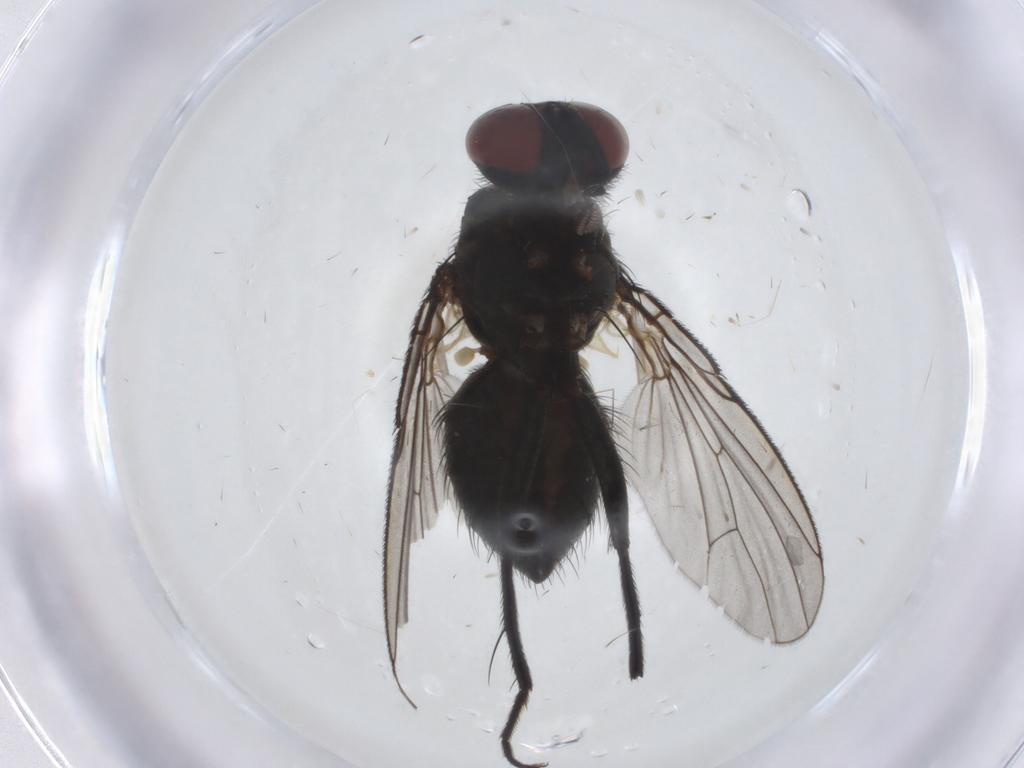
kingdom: Animalia
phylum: Arthropoda
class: Insecta
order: Diptera
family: Muscidae
